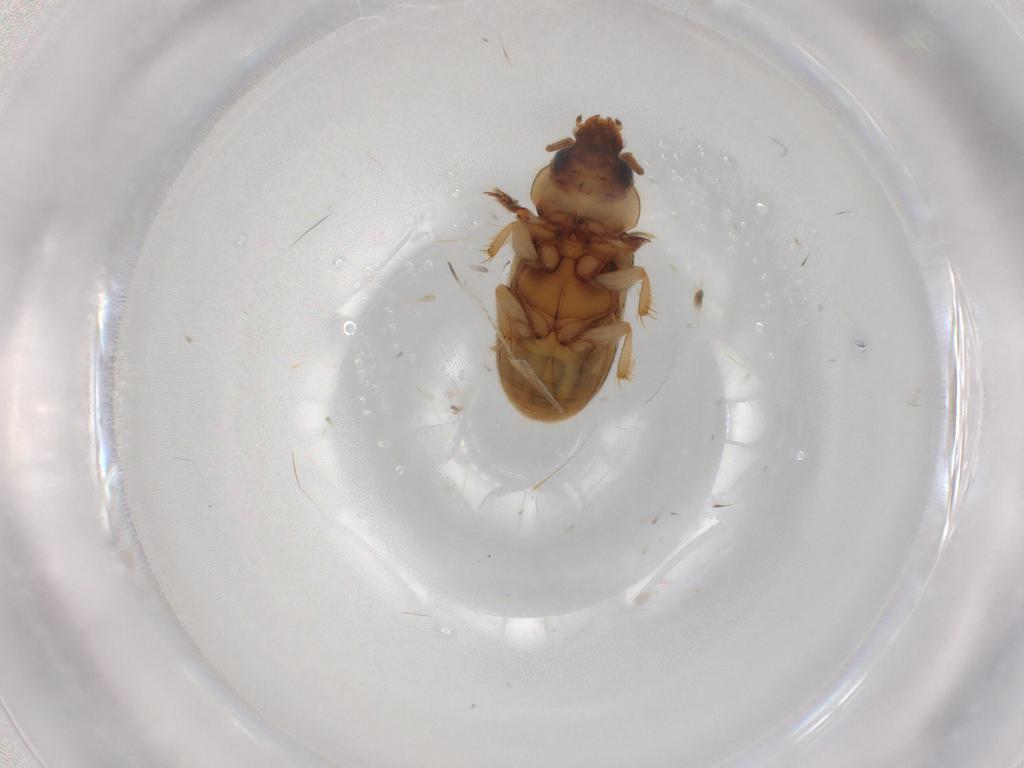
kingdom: Animalia
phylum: Arthropoda
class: Insecta
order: Coleoptera
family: Heteroceridae
